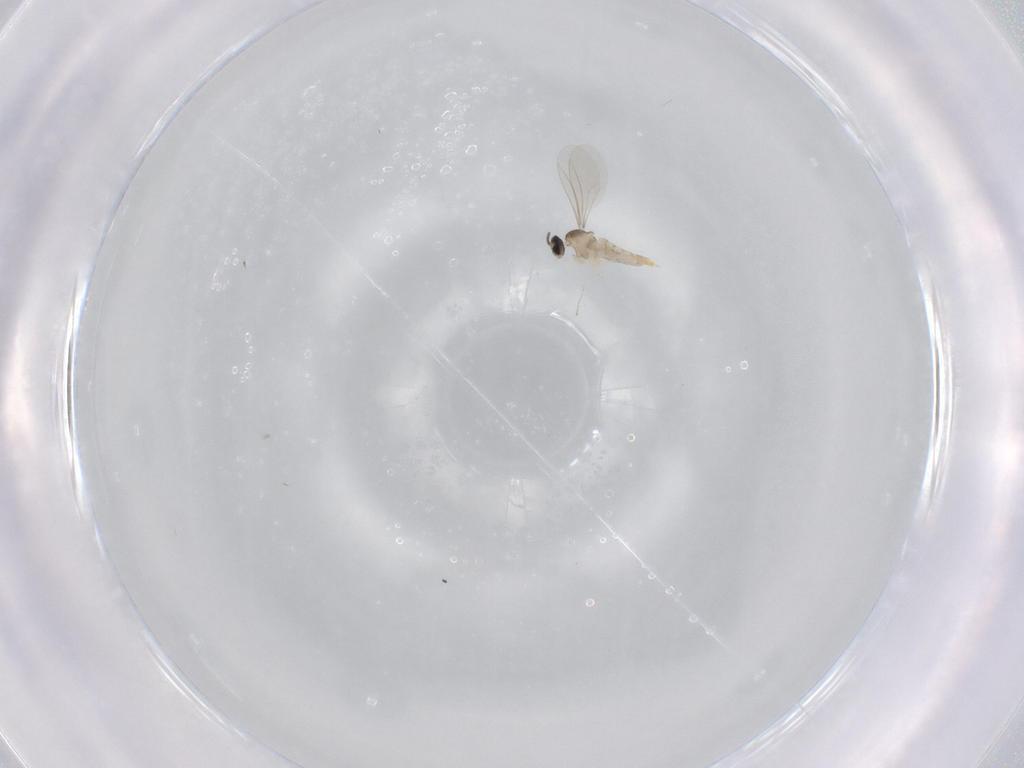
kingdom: Animalia
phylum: Arthropoda
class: Insecta
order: Diptera
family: Cecidomyiidae
